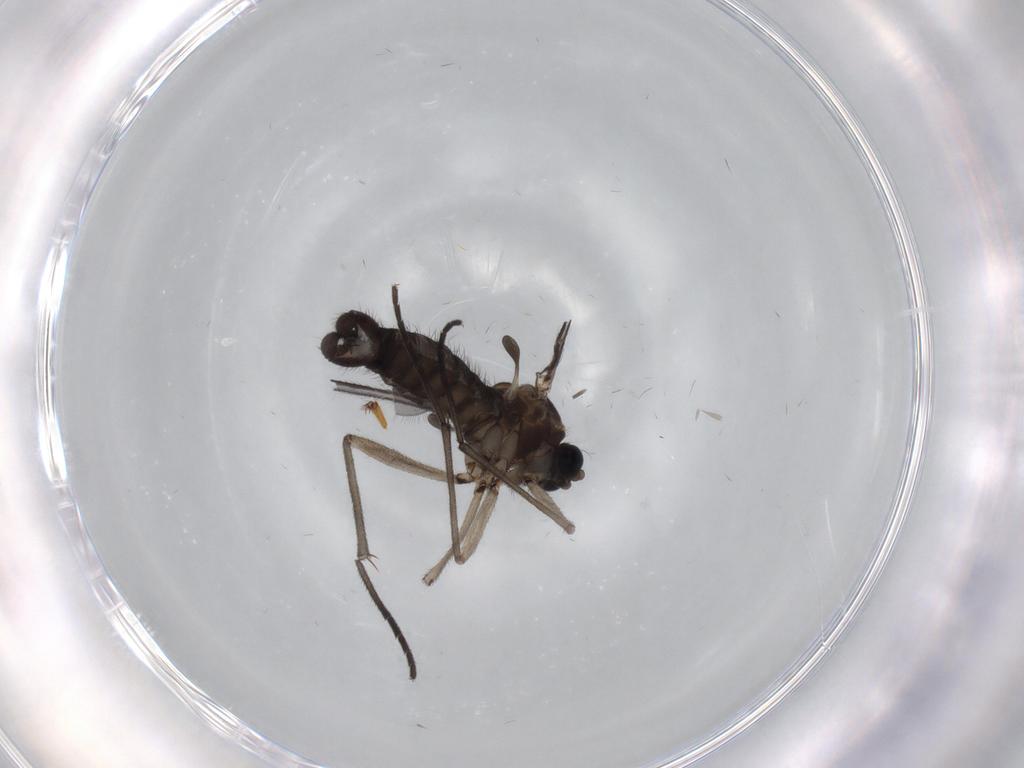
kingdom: Animalia
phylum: Arthropoda
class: Insecta
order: Diptera
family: Sciaridae
